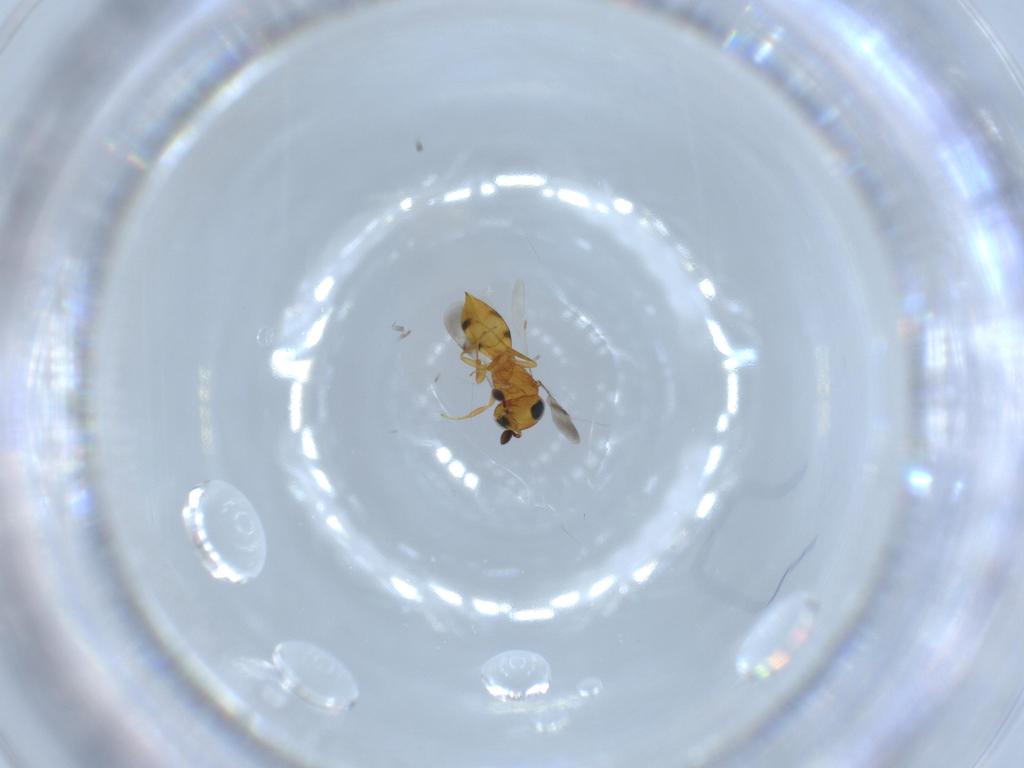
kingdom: Animalia
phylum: Arthropoda
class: Insecta
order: Hymenoptera
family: Scelionidae
